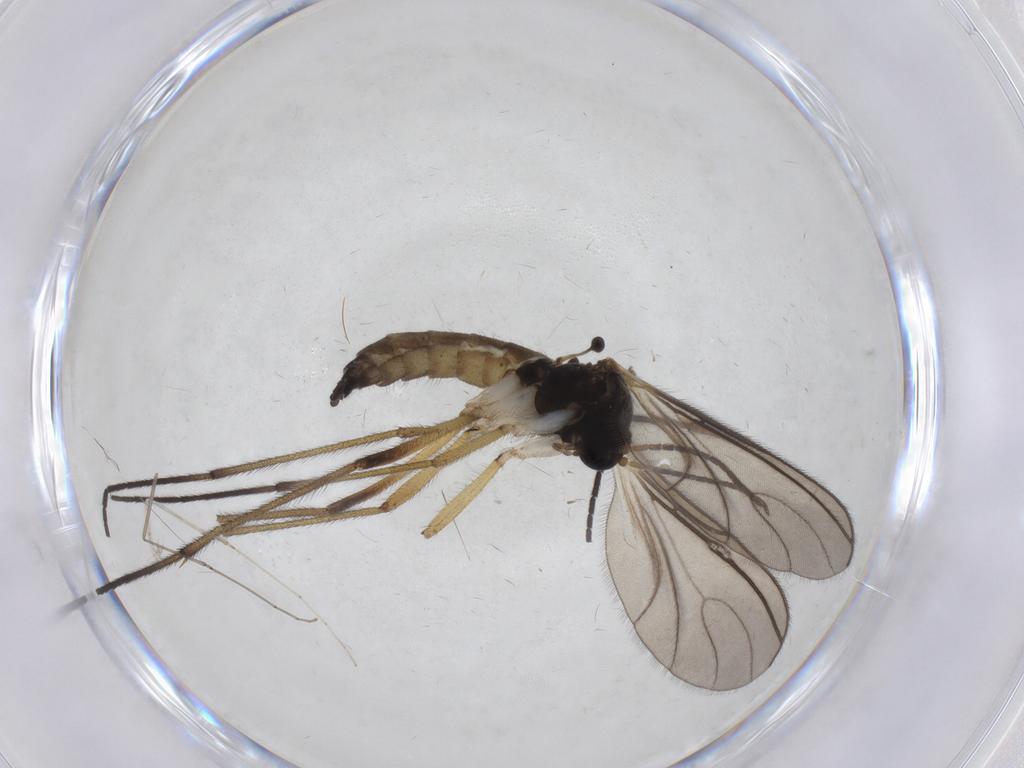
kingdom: Animalia
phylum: Arthropoda
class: Insecta
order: Diptera
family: Sciaridae
